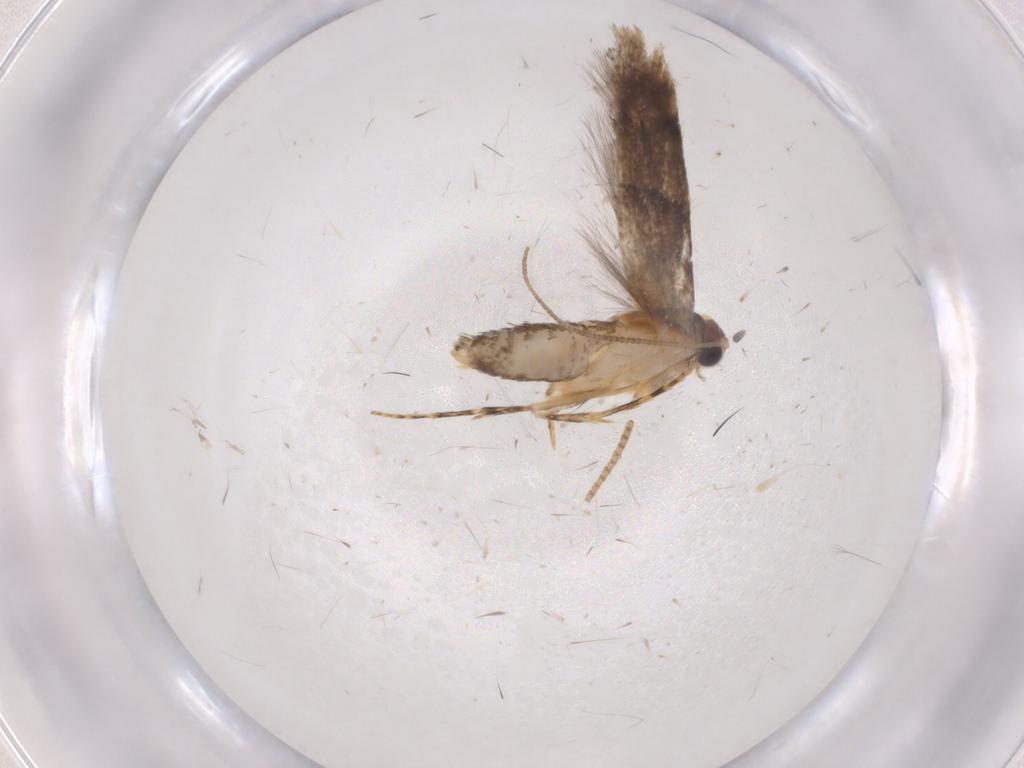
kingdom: Animalia
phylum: Arthropoda
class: Insecta
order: Lepidoptera
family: Tineidae
